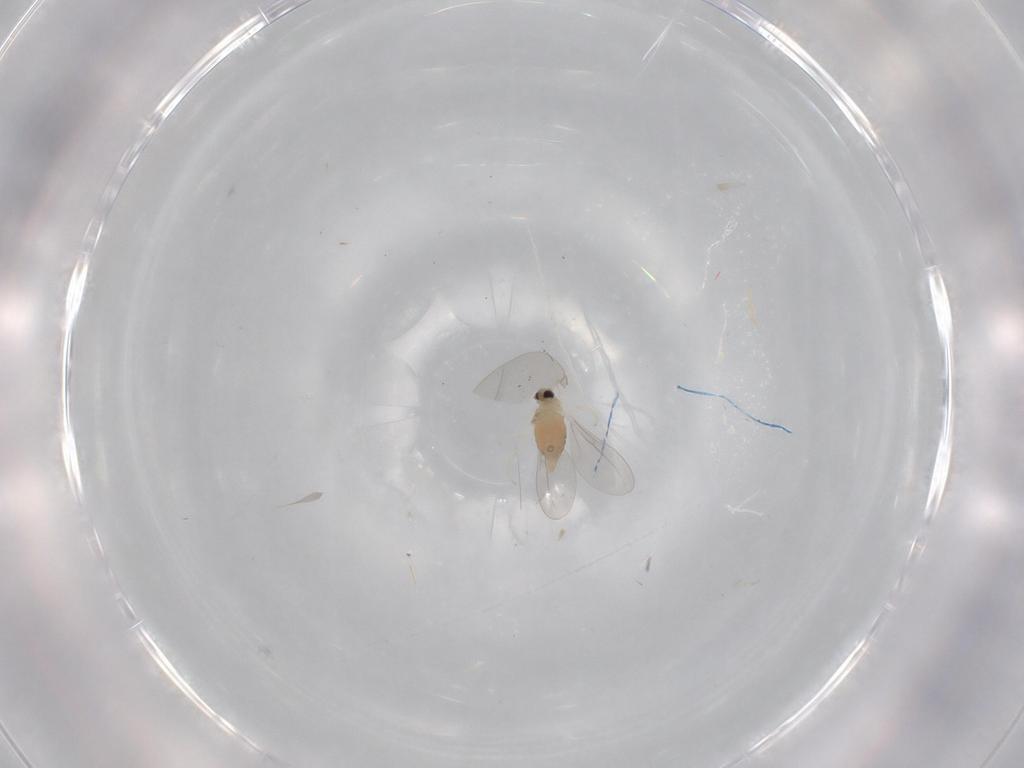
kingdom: Animalia
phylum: Arthropoda
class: Insecta
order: Diptera
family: Cecidomyiidae
